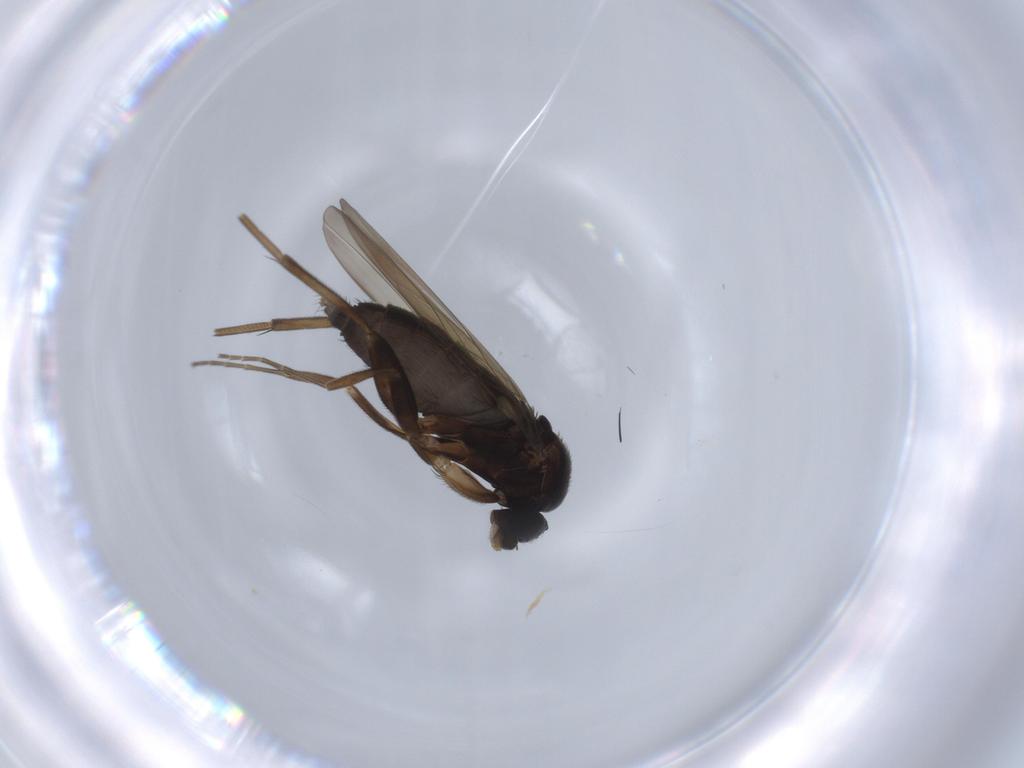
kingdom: Animalia
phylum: Arthropoda
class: Insecta
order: Diptera
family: Phoridae
